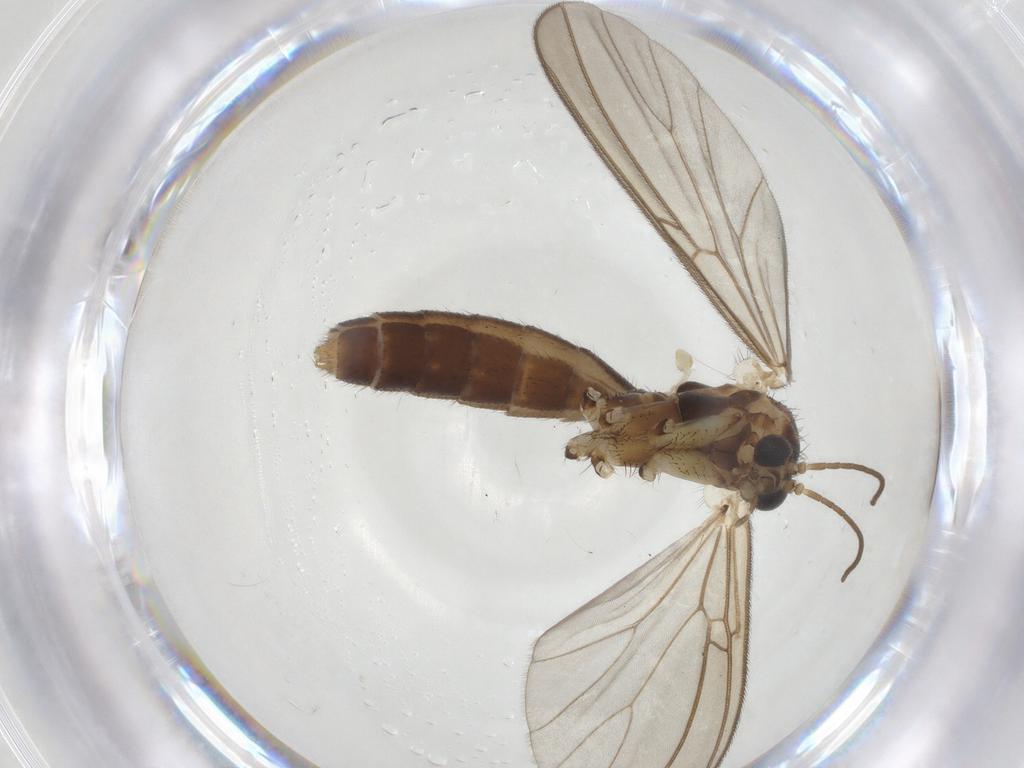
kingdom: Animalia
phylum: Arthropoda
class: Insecta
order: Diptera
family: Mycetophilidae
